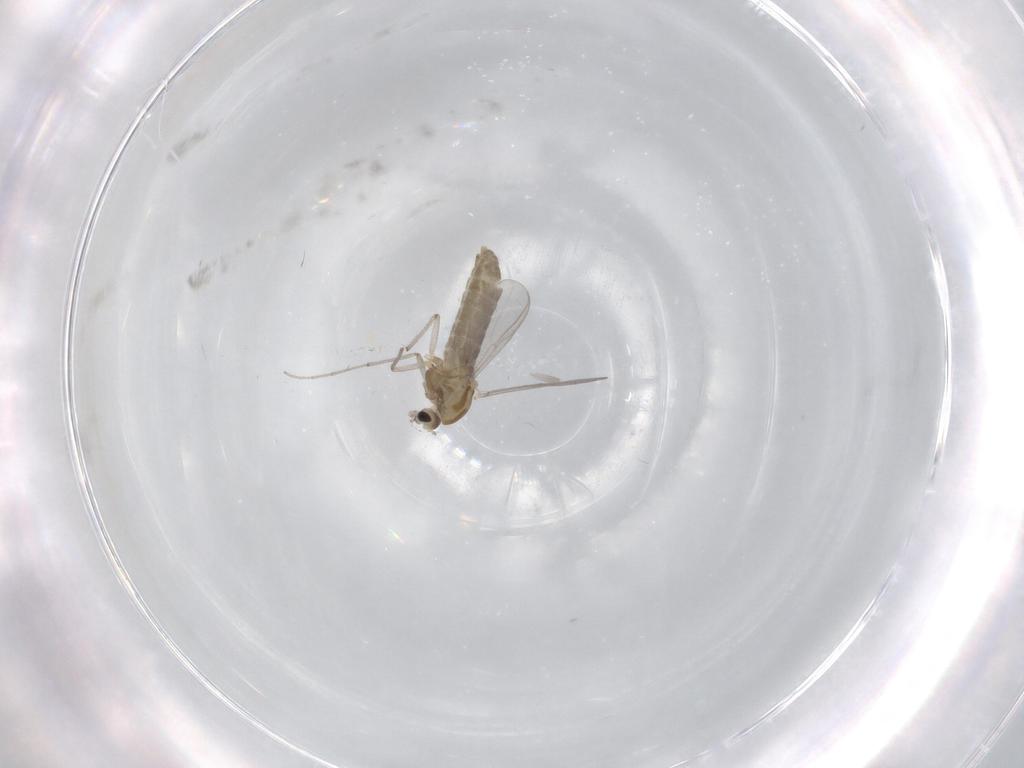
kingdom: Animalia
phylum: Arthropoda
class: Insecta
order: Diptera
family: Chironomidae
